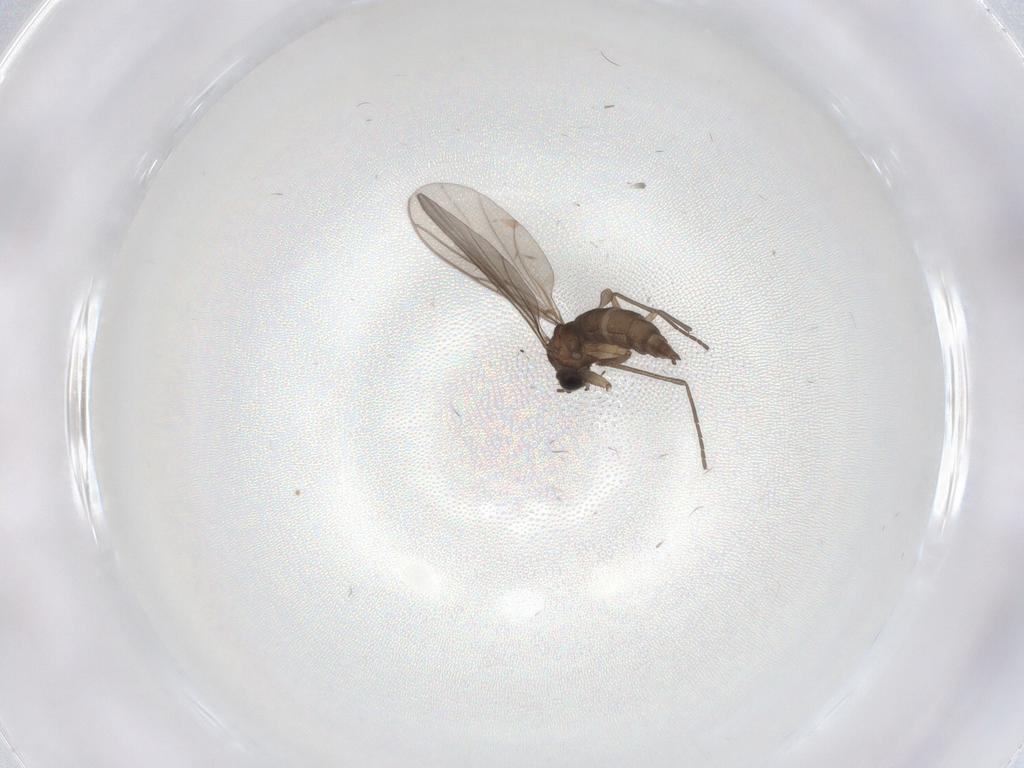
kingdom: Animalia
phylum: Arthropoda
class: Insecta
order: Diptera
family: Sciaridae
